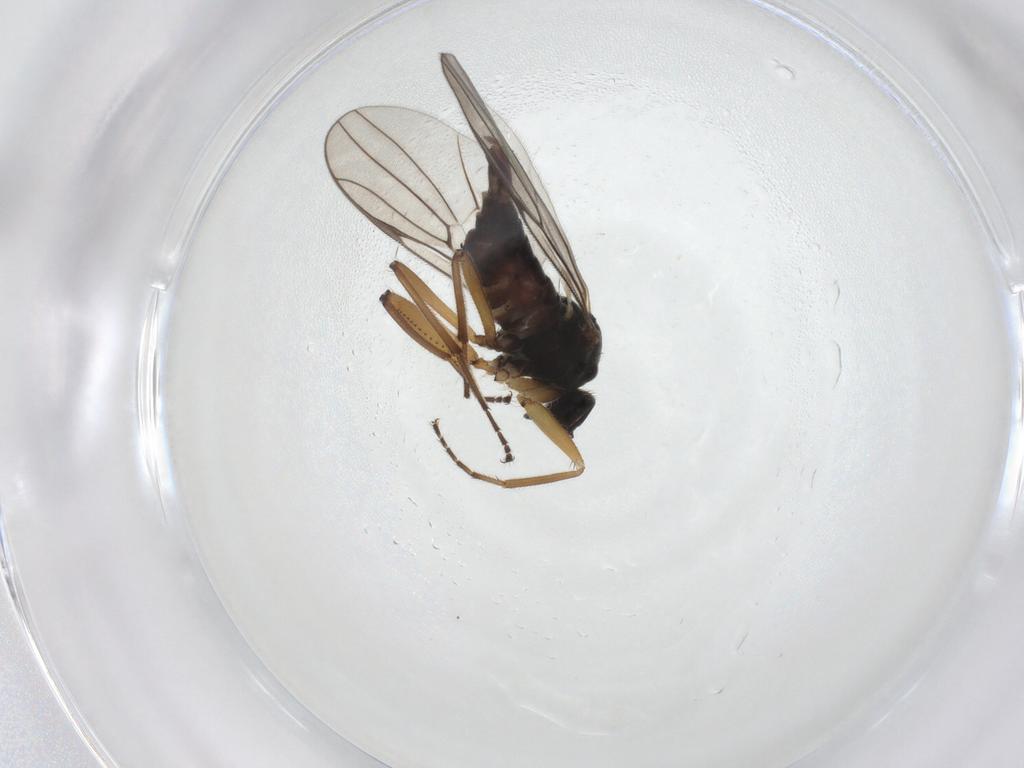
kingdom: Animalia
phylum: Arthropoda
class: Insecta
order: Diptera
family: Hybotidae
